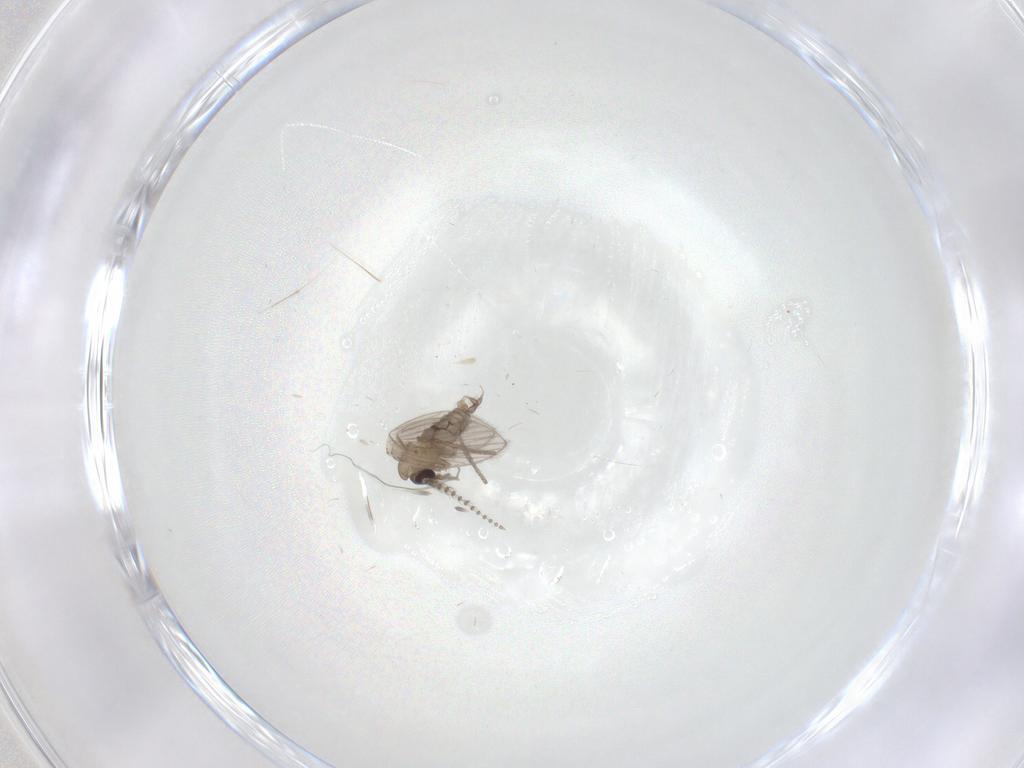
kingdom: Animalia
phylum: Arthropoda
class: Insecta
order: Diptera
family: Psychodidae
